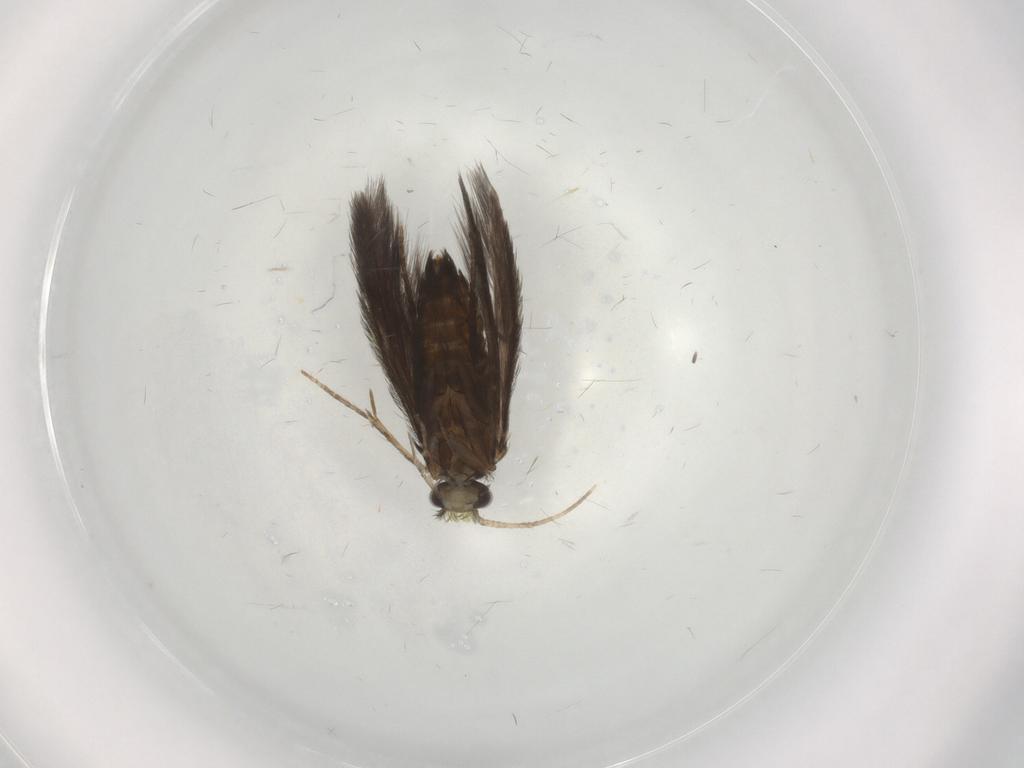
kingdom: Animalia
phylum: Arthropoda
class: Insecta
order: Trichoptera
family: Hydroptilidae
